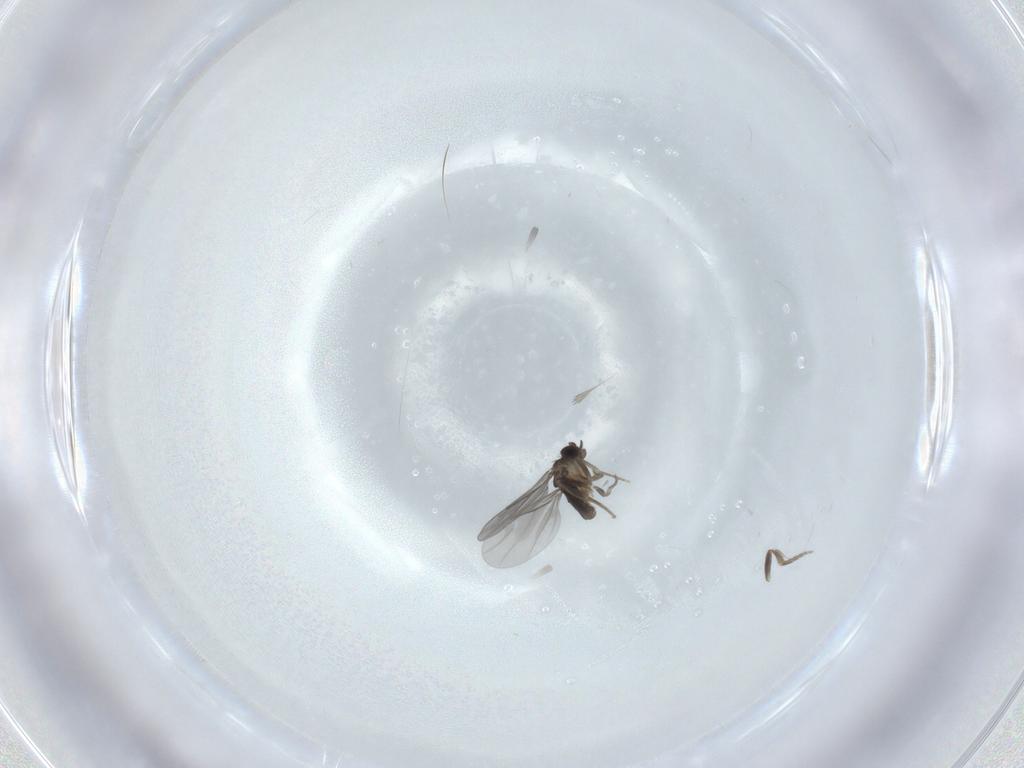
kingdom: Animalia
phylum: Arthropoda
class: Insecta
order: Diptera
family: Limoniidae
